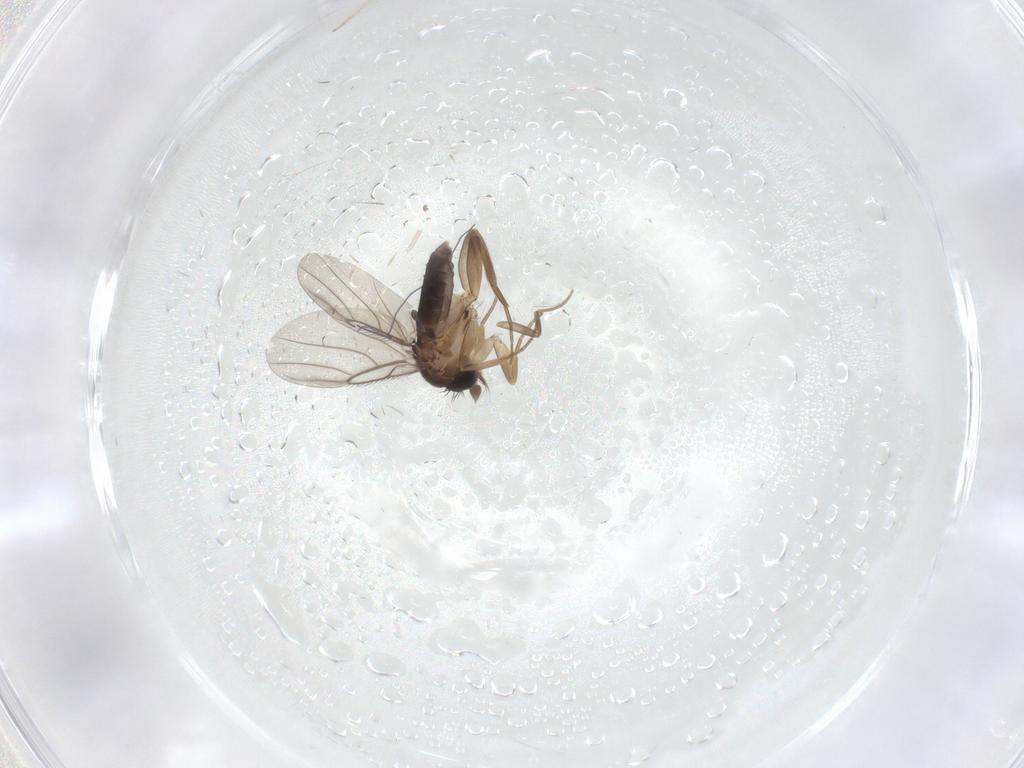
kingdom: Animalia
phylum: Arthropoda
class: Insecta
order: Diptera
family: Chironomidae
